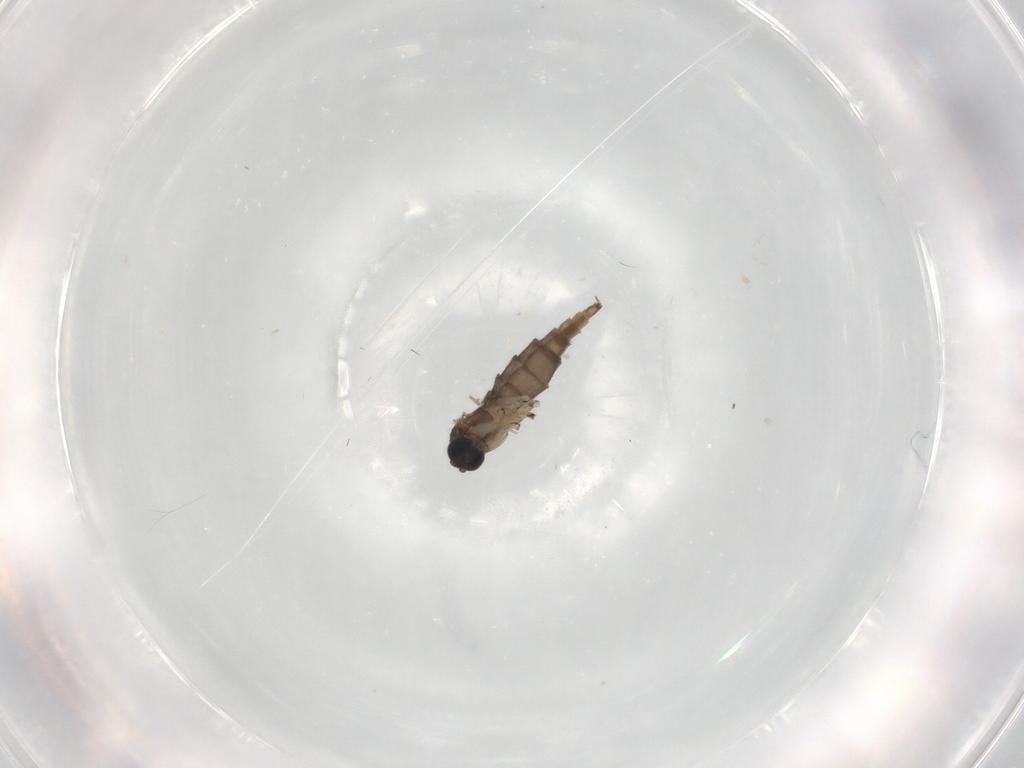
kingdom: Animalia
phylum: Arthropoda
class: Insecta
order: Diptera
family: Sciaridae
